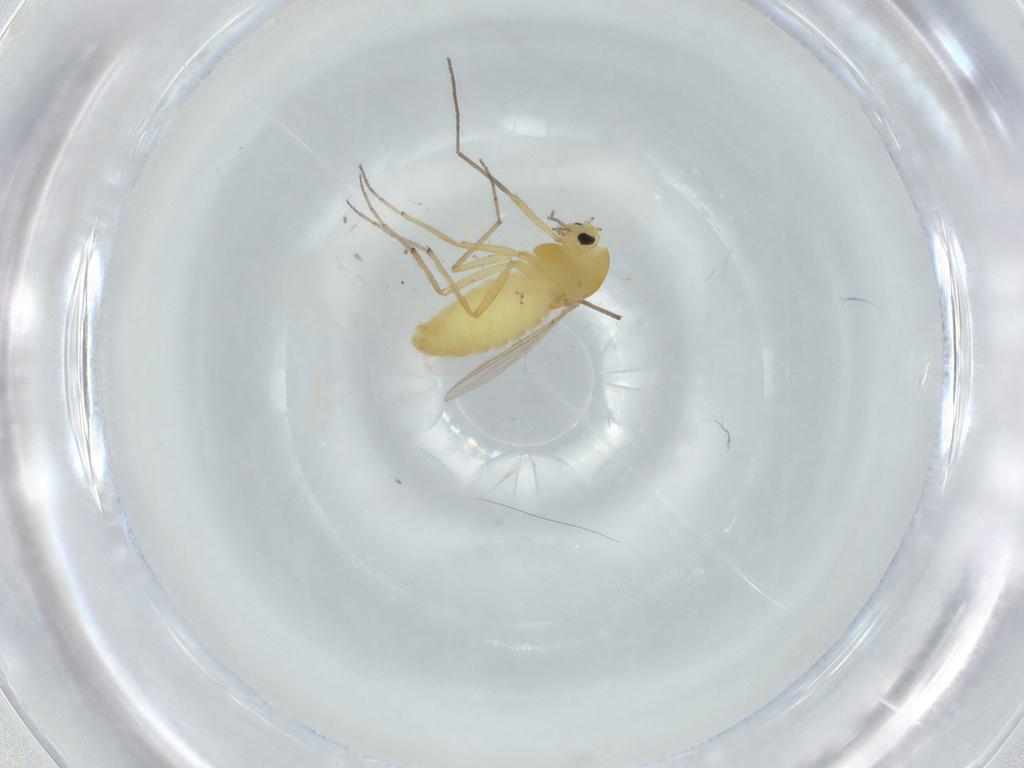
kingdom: Animalia
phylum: Arthropoda
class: Insecta
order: Diptera
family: Chironomidae
